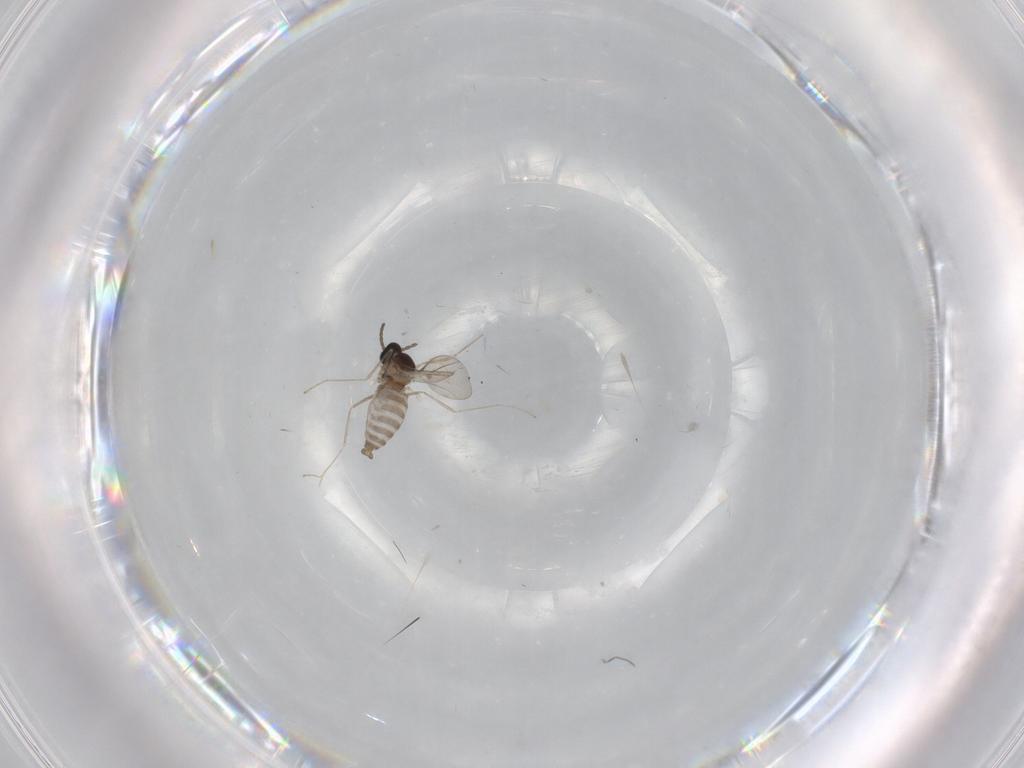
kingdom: Animalia
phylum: Arthropoda
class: Insecta
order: Diptera
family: Cecidomyiidae
